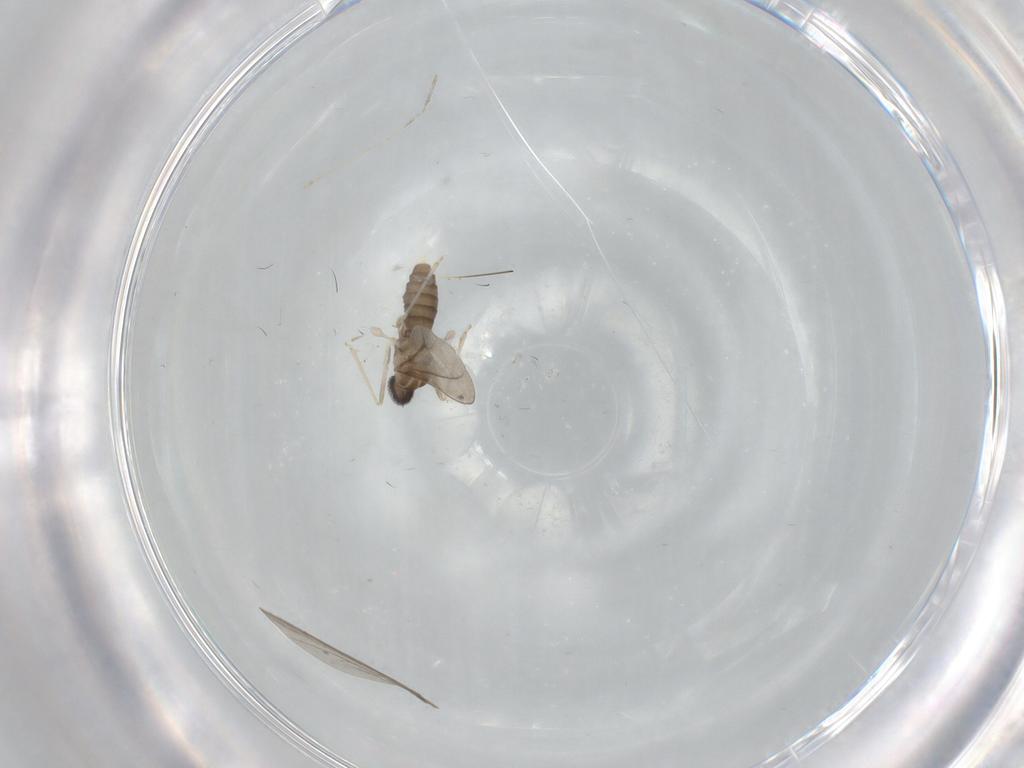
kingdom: Animalia
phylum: Arthropoda
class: Insecta
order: Diptera
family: Cecidomyiidae
